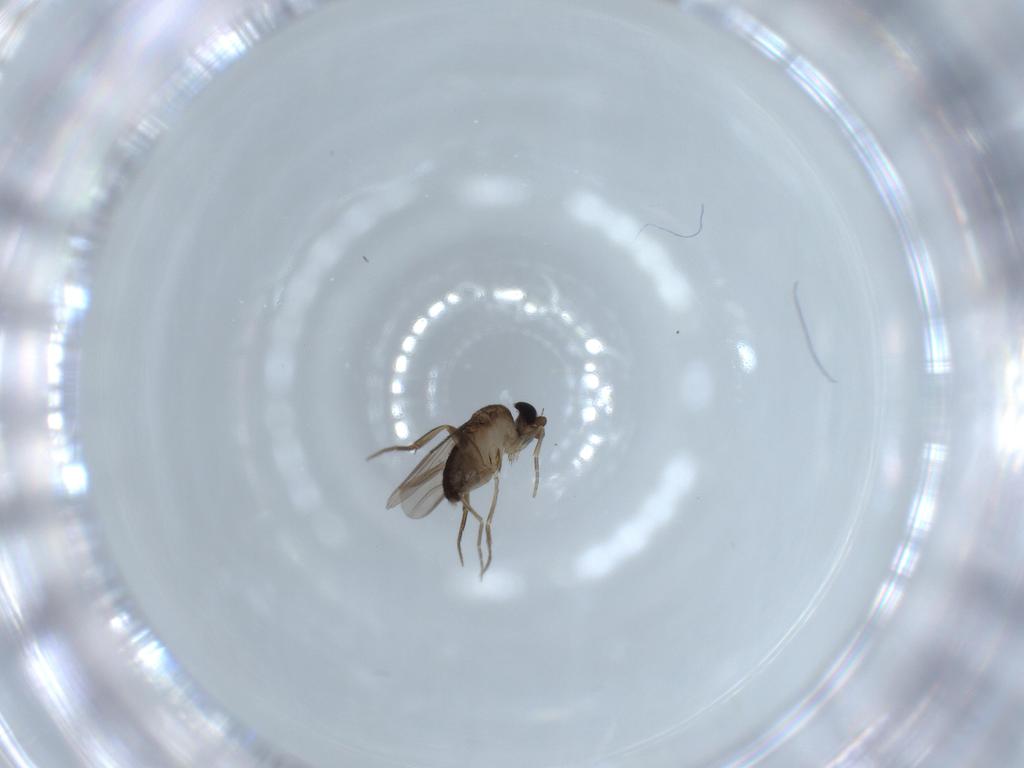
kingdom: Animalia
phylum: Arthropoda
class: Insecta
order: Diptera
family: Phoridae
